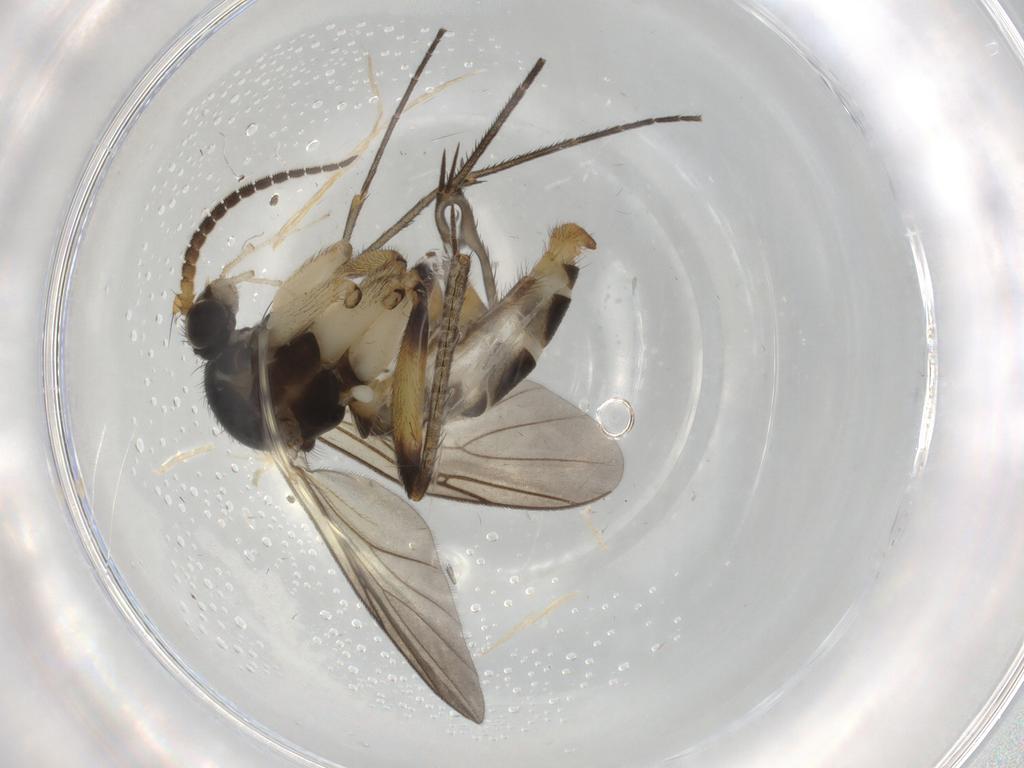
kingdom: Animalia
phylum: Arthropoda
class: Insecta
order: Diptera
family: Mycetophilidae
